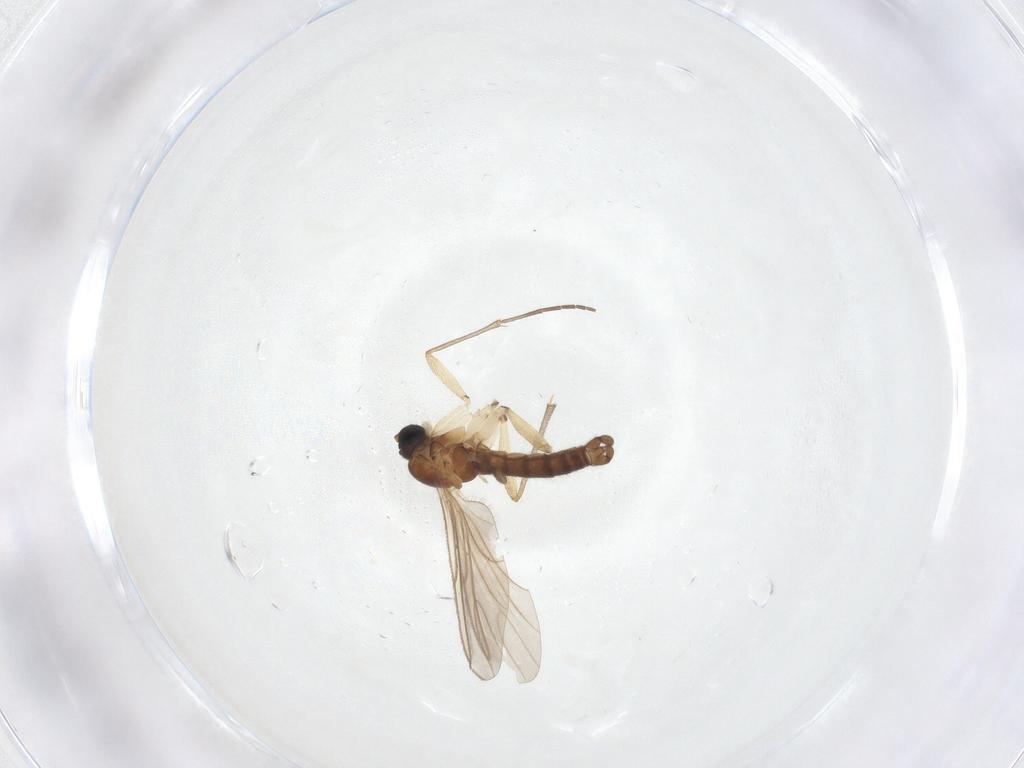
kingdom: Animalia
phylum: Arthropoda
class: Insecta
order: Diptera
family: Sciaridae
